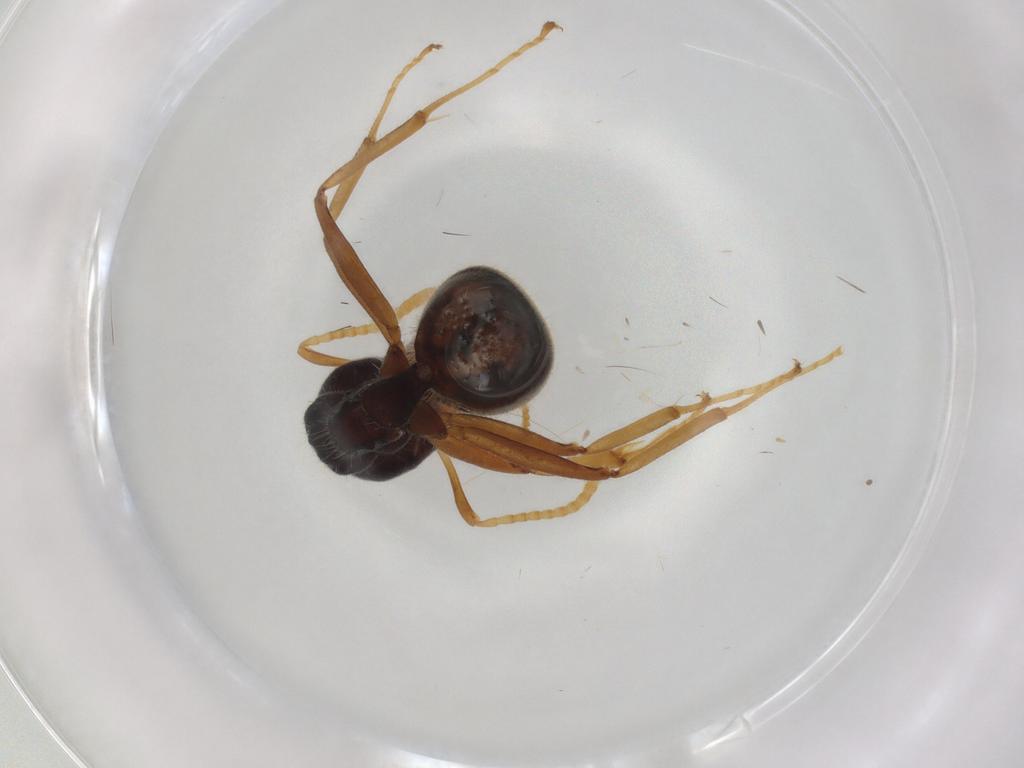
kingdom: Animalia
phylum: Arthropoda
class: Insecta
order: Hymenoptera
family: Formicidae
